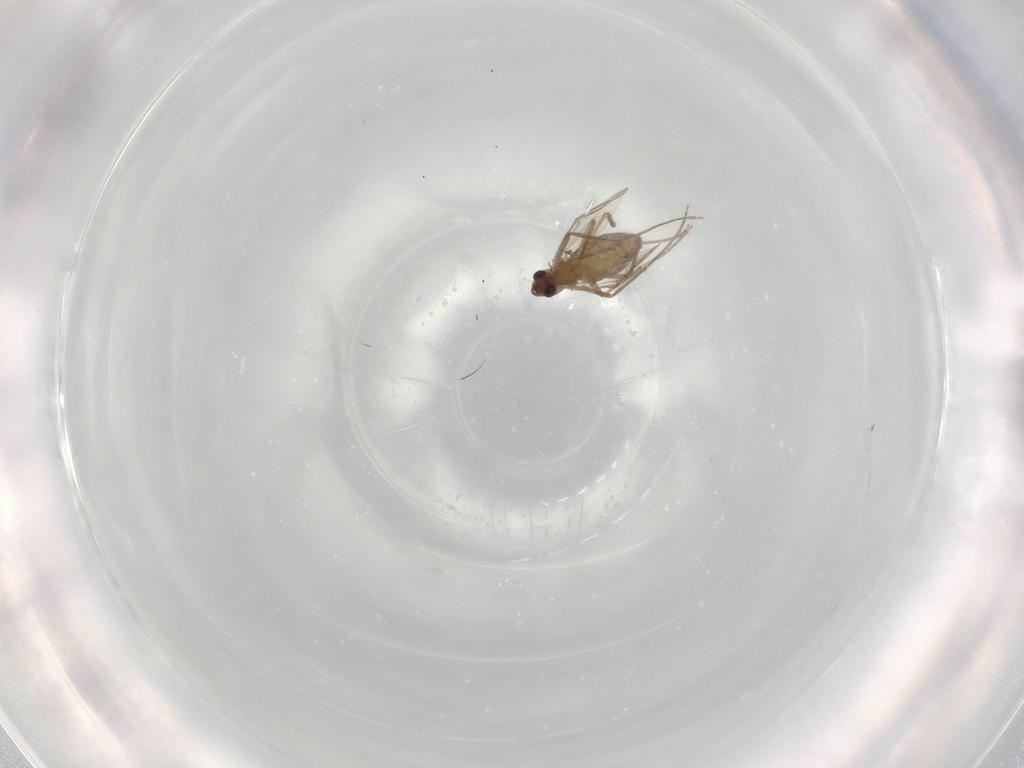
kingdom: Animalia
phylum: Arthropoda
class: Insecta
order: Diptera
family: Chironomidae
